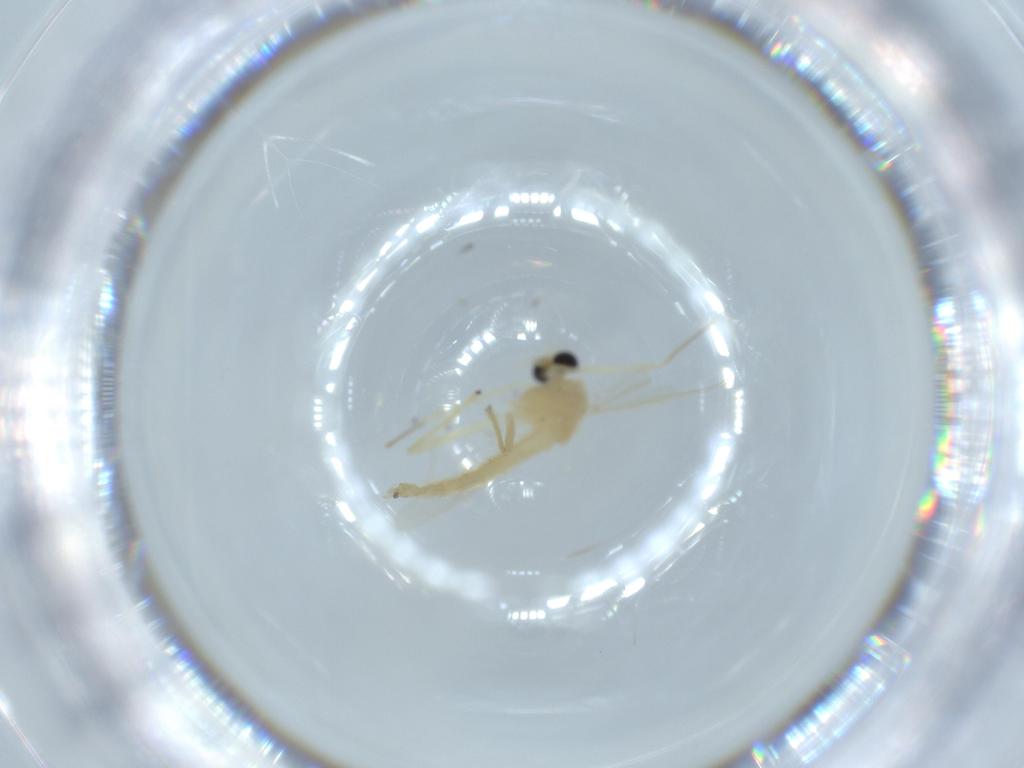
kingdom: Animalia
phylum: Arthropoda
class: Insecta
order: Diptera
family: Chironomidae
